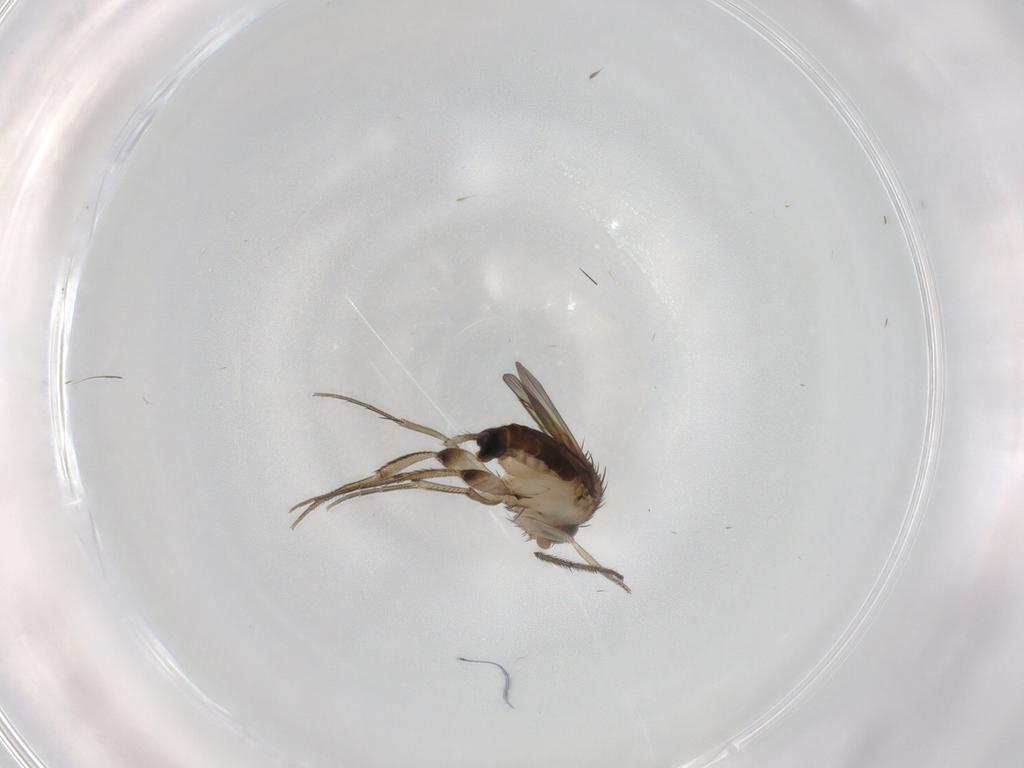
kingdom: Animalia
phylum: Arthropoda
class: Insecta
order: Diptera
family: Phoridae
